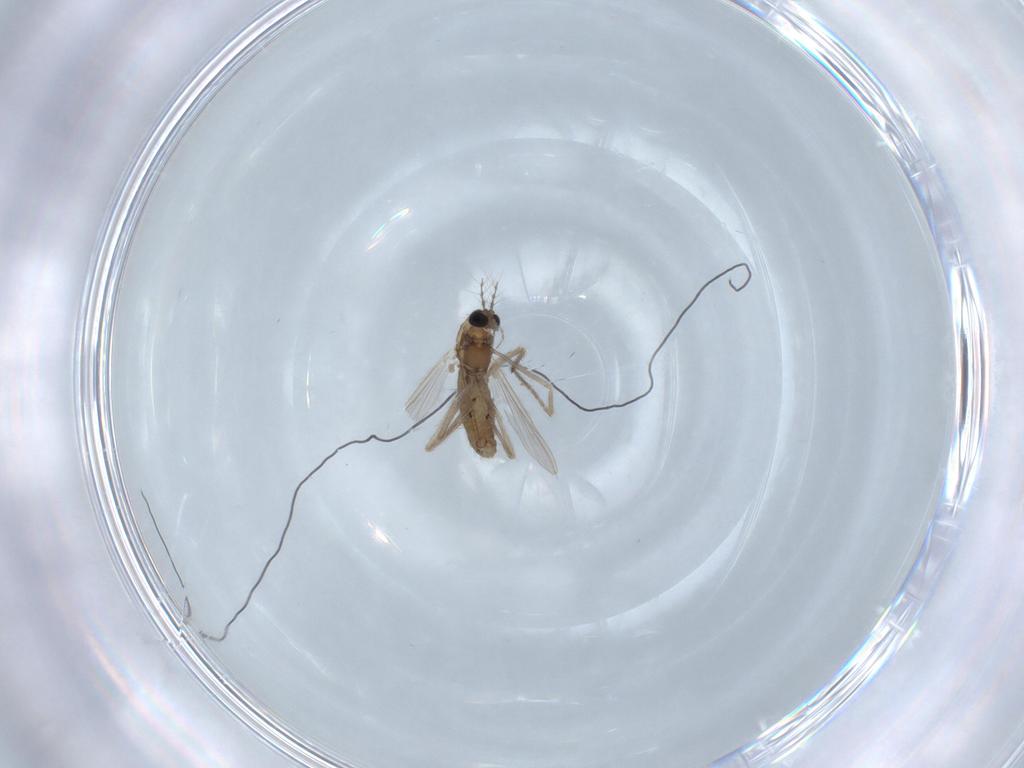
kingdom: Animalia
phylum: Arthropoda
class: Insecta
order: Diptera
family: Chironomidae
